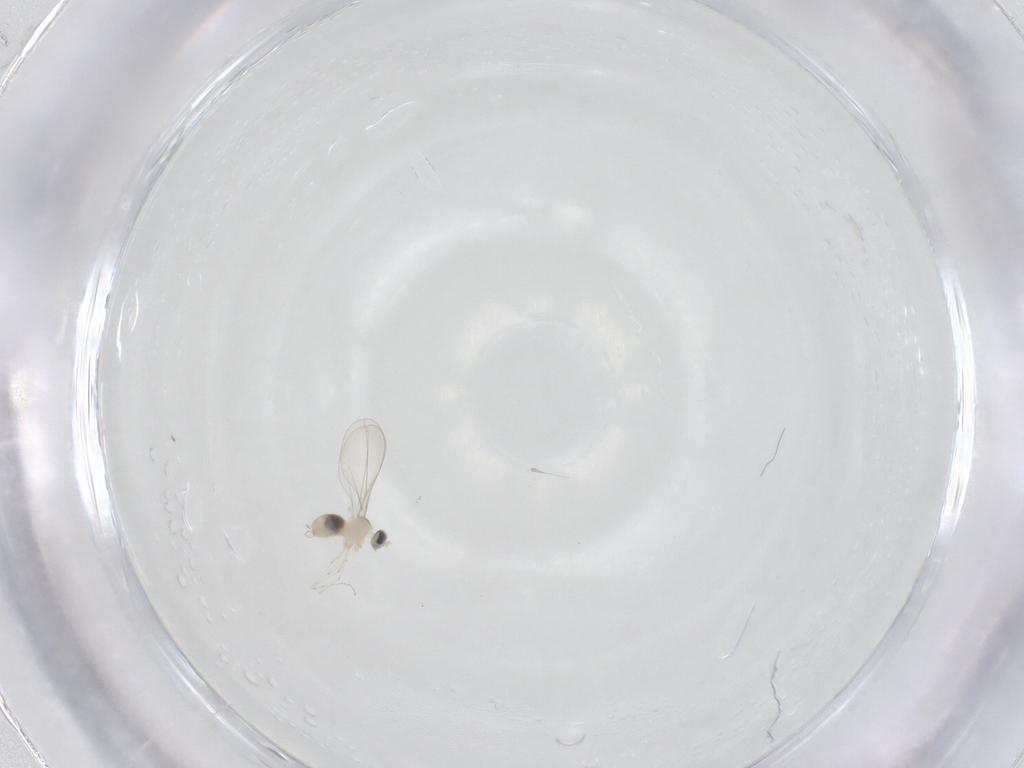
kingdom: Animalia
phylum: Arthropoda
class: Insecta
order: Diptera
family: Cecidomyiidae
